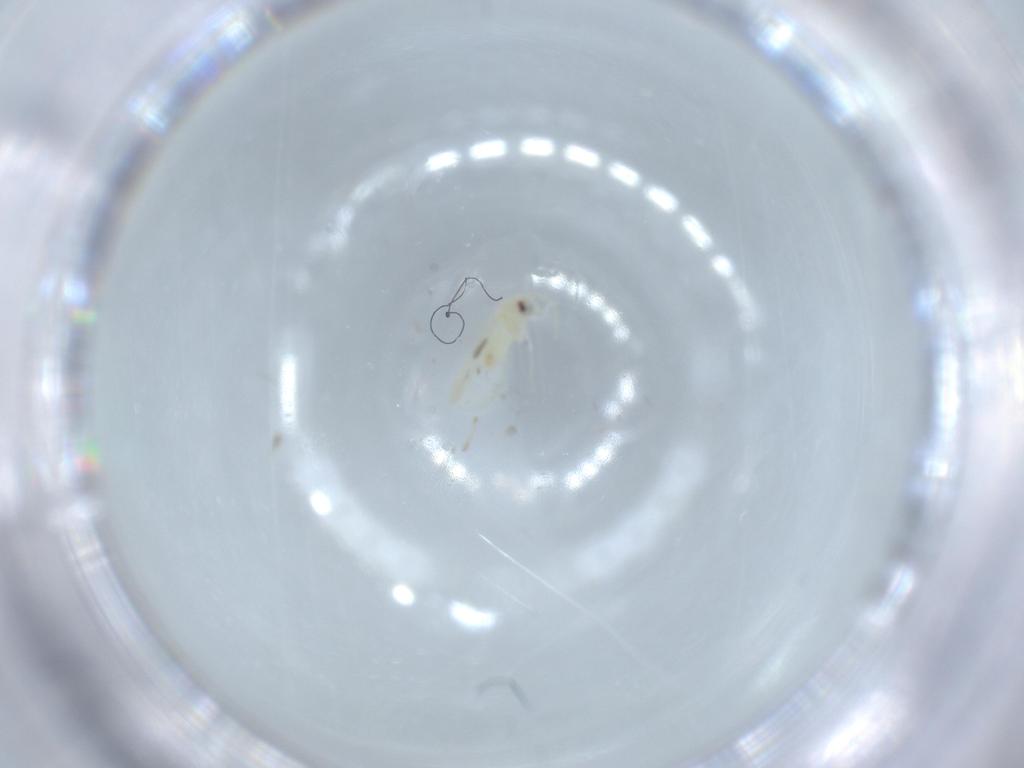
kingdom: Animalia
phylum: Arthropoda
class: Insecta
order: Hemiptera
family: Aleyrodidae
